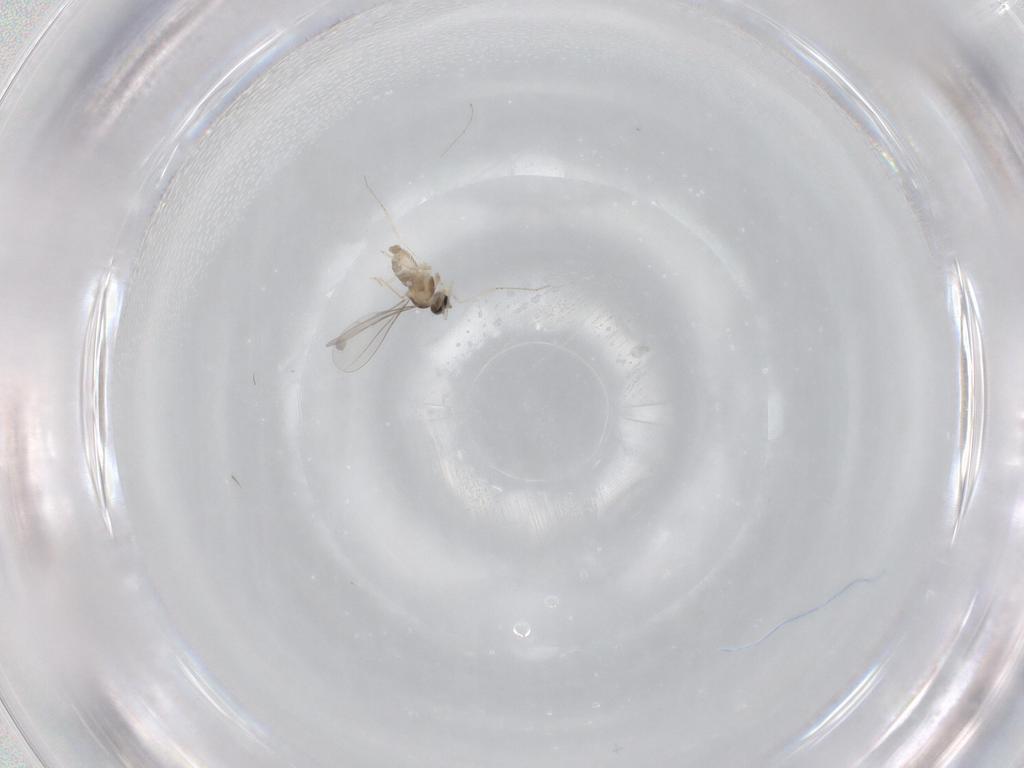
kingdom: Animalia
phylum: Arthropoda
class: Insecta
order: Diptera
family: Cecidomyiidae
